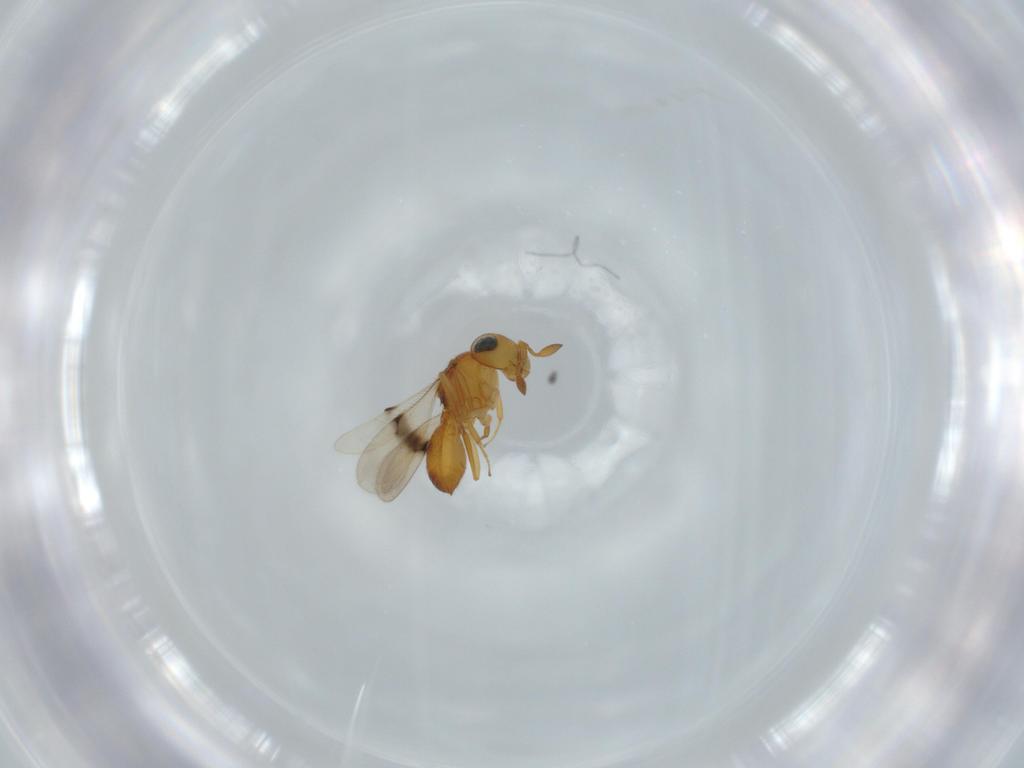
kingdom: Animalia
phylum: Arthropoda
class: Insecta
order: Hymenoptera
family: Scelionidae
